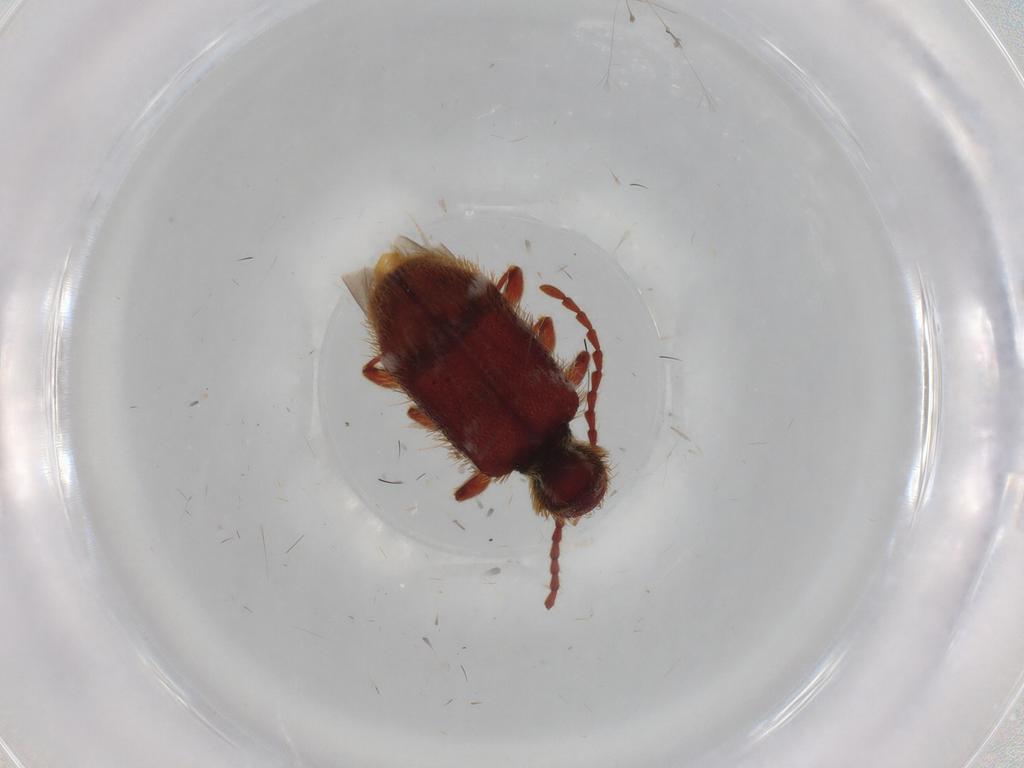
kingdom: Animalia
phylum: Arthropoda
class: Insecta
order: Coleoptera
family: Ptinidae
